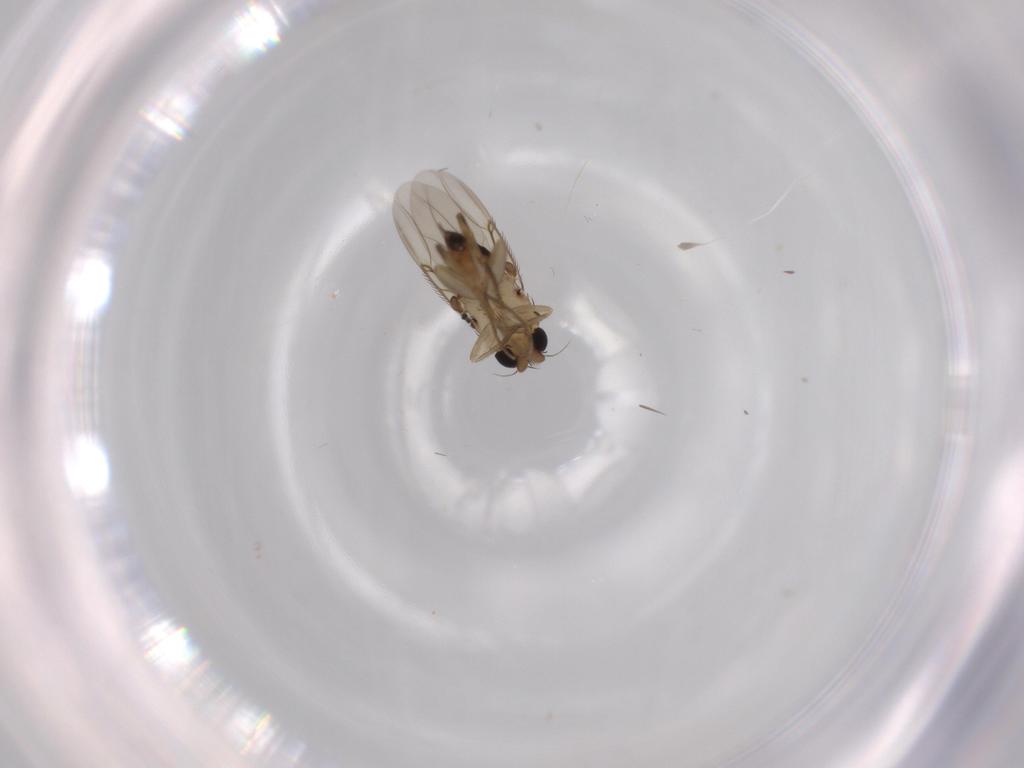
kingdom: Animalia
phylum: Arthropoda
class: Insecta
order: Diptera
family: Phoridae
